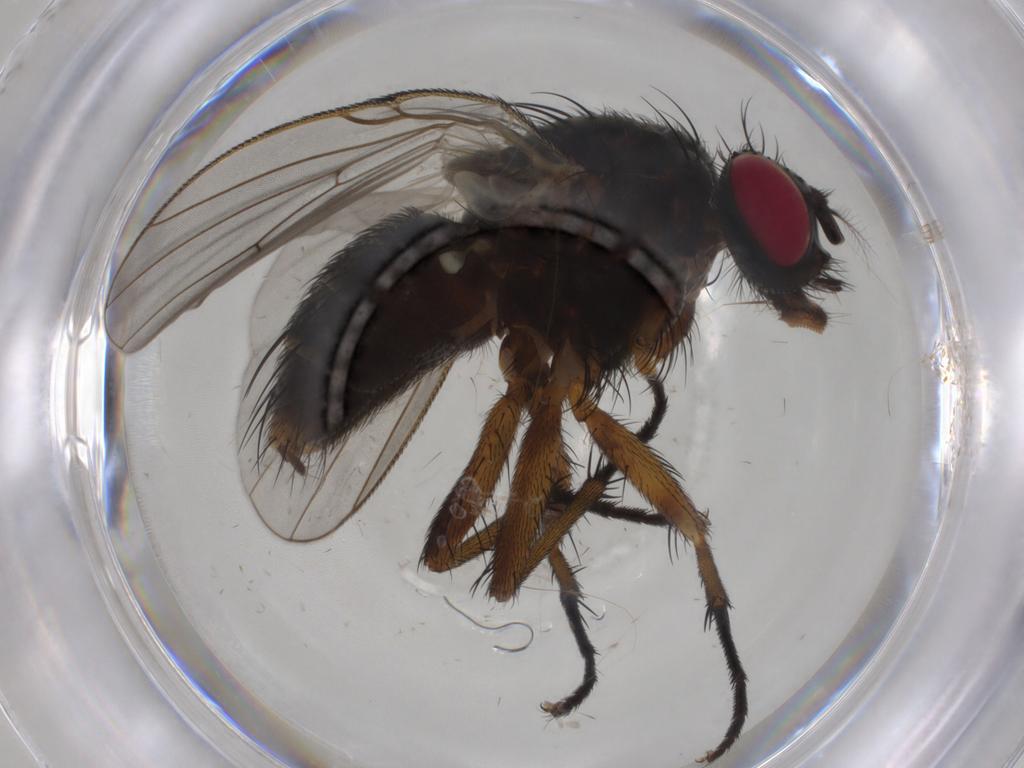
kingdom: Animalia
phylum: Arthropoda
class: Insecta
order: Diptera
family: Muscidae
